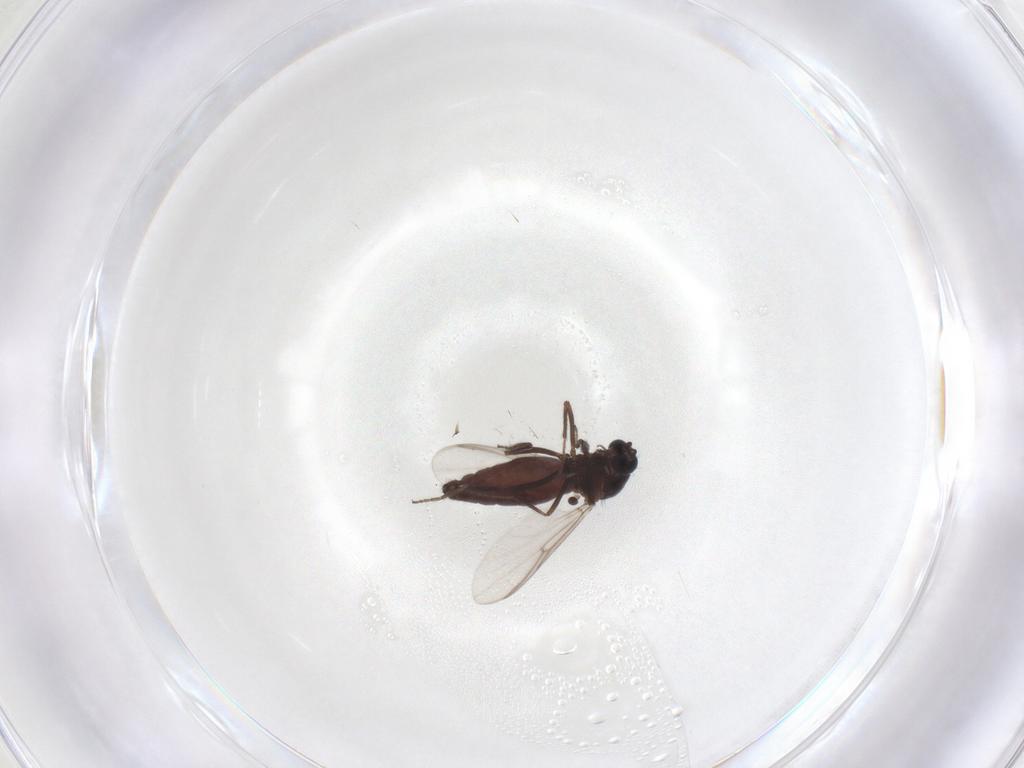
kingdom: Animalia
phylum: Arthropoda
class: Insecta
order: Diptera
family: Ceratopogonidae
